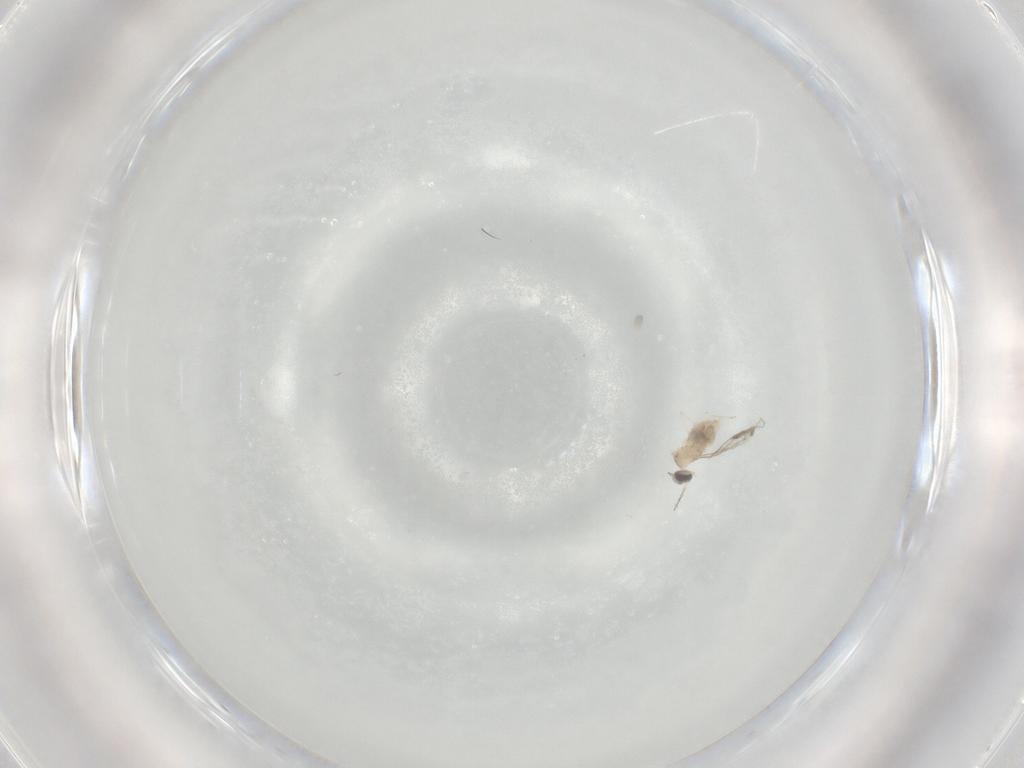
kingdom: Animalia
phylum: Arthropoda
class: Insecta
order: Diptera
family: Cecidomyiidae
